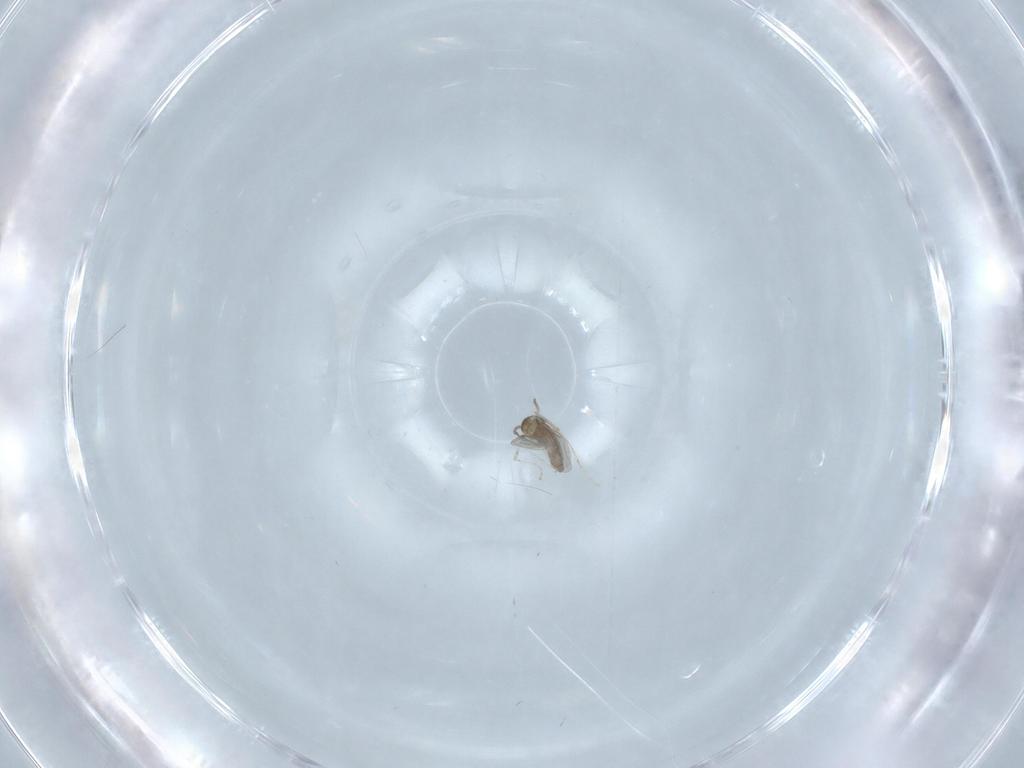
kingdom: Animalia
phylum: Arthropoda
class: Insecta
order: Diptera
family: Cecidomyiidae
